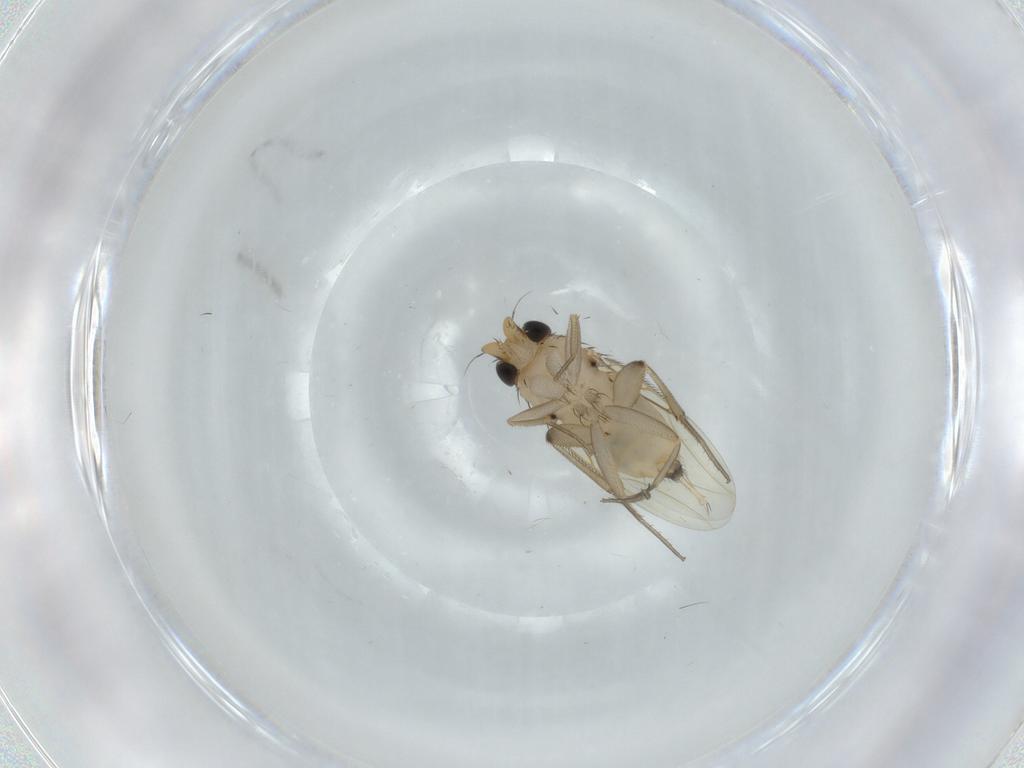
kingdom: Animalia
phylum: Arthropoda
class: Insecta
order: Diptera
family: Phoridae
